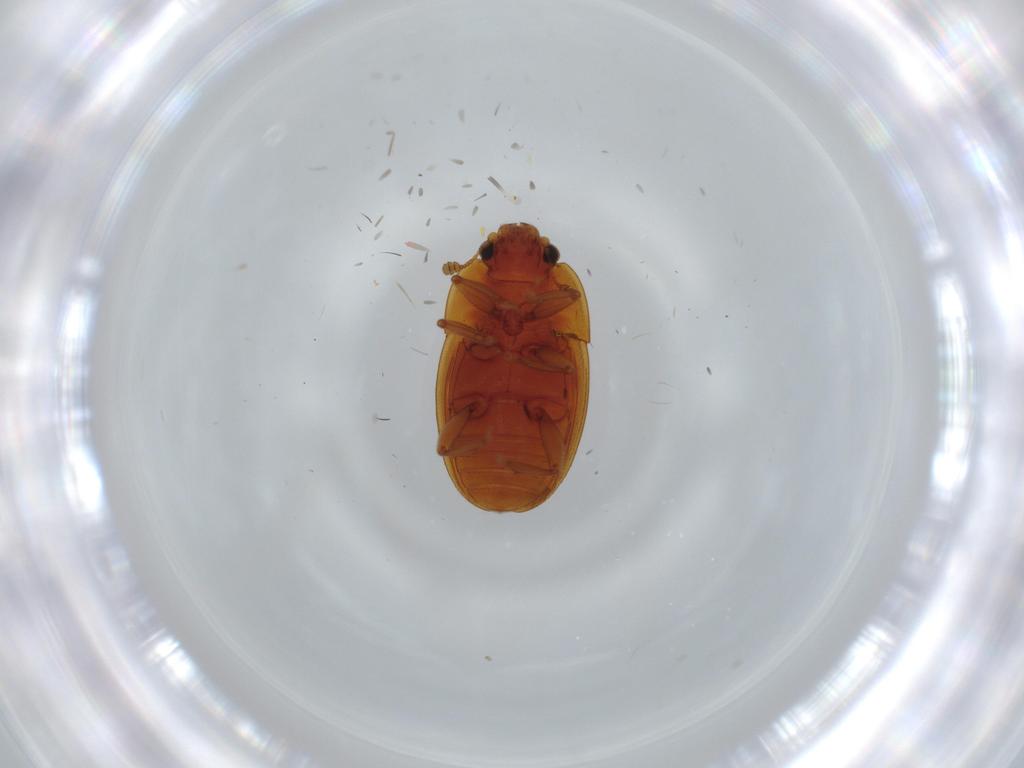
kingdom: Animalia
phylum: Arthropoda
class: Insecta
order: Coleoptera
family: Nitidulidae
